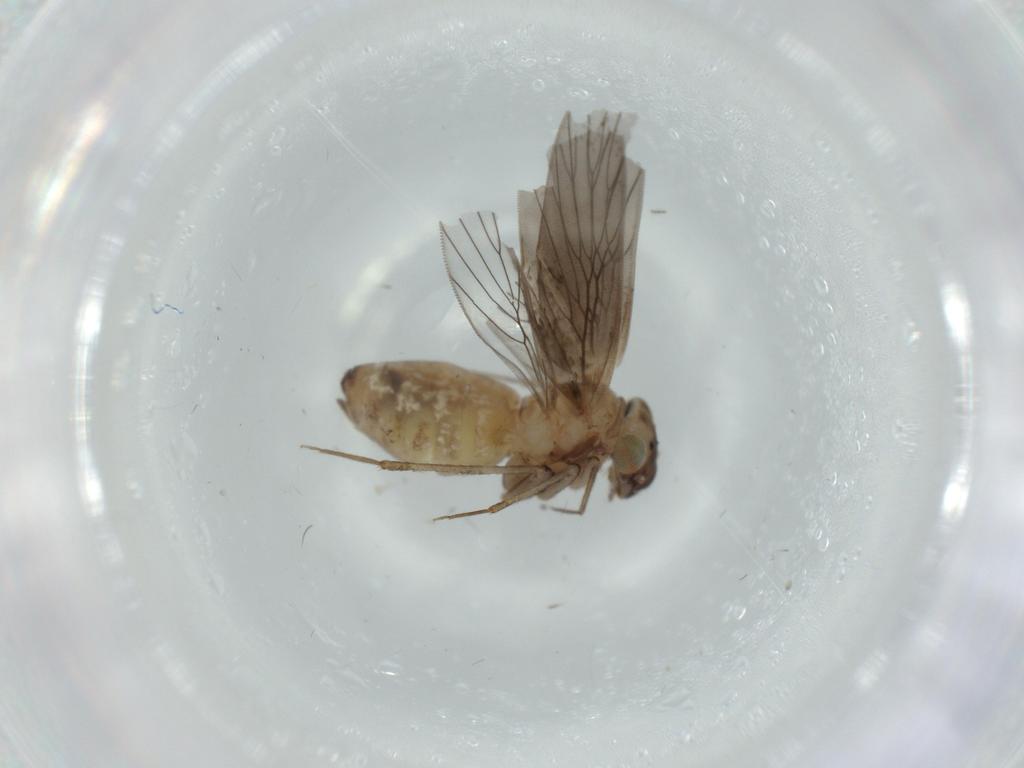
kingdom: Animalia
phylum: Arthropoda
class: Insecta
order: Psocodea
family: Lepidopsocidae
